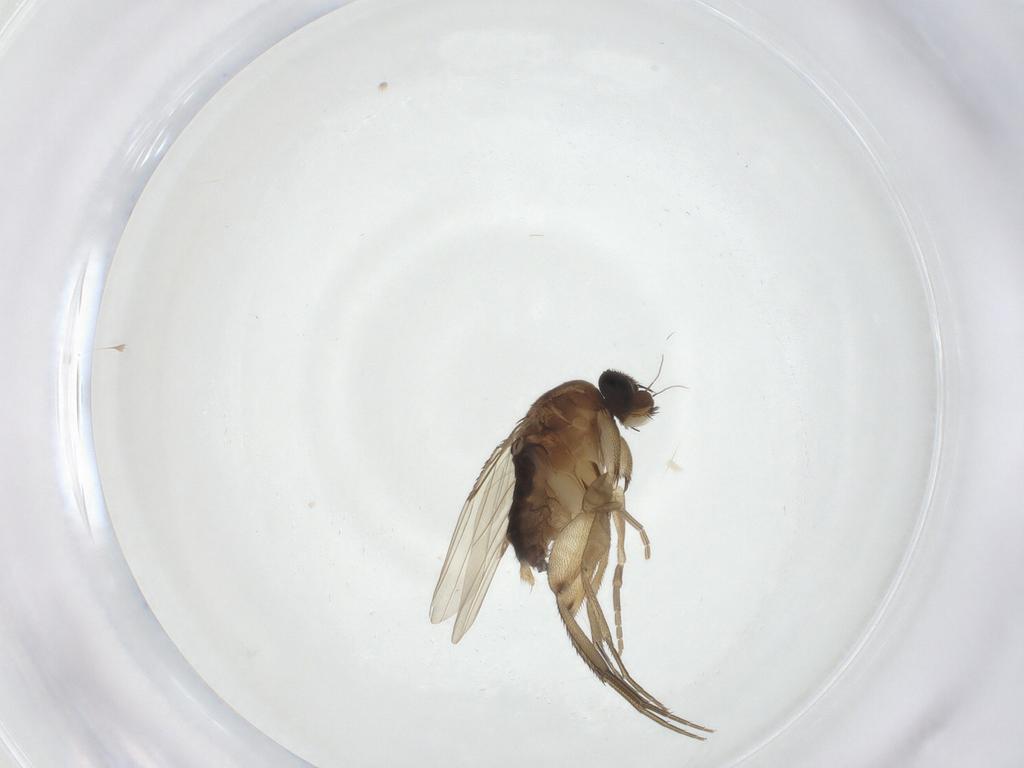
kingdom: Animalia
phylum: Arthropoda
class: Insecta
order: Diptera
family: Phoridae
